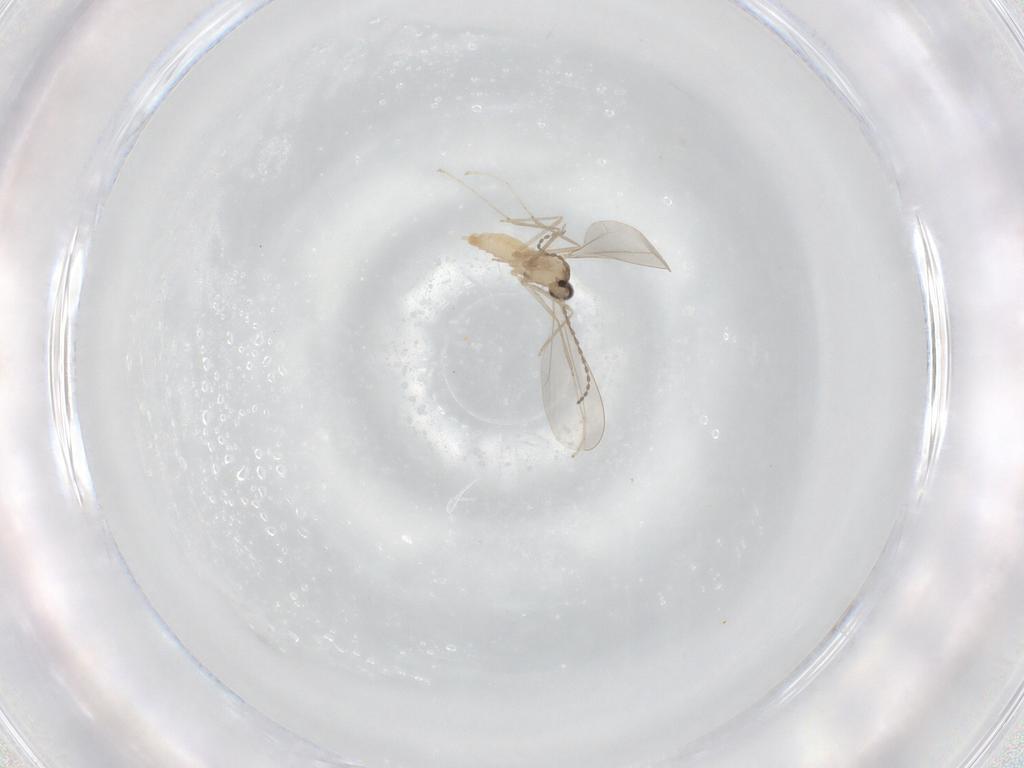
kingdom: Animalia
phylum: Arthropoda
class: Insecta
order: Diptera
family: Cecidomyiidae
